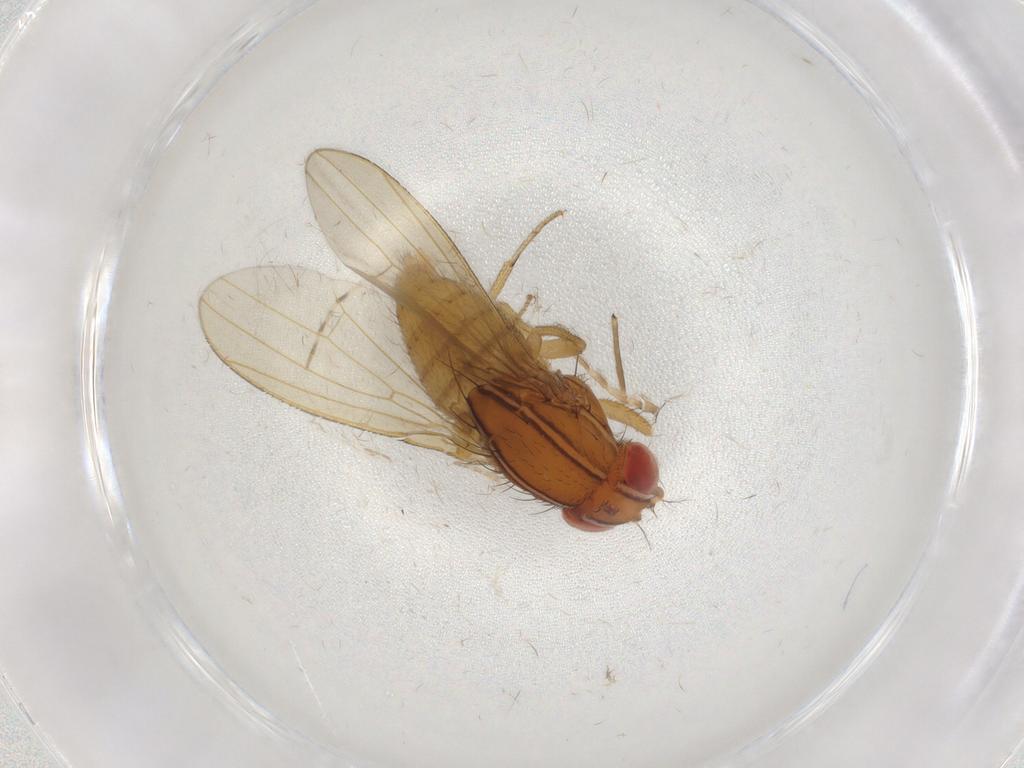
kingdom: Animalia
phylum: Arthropoda
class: Insecta
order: Diptera
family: Drosophilidae
